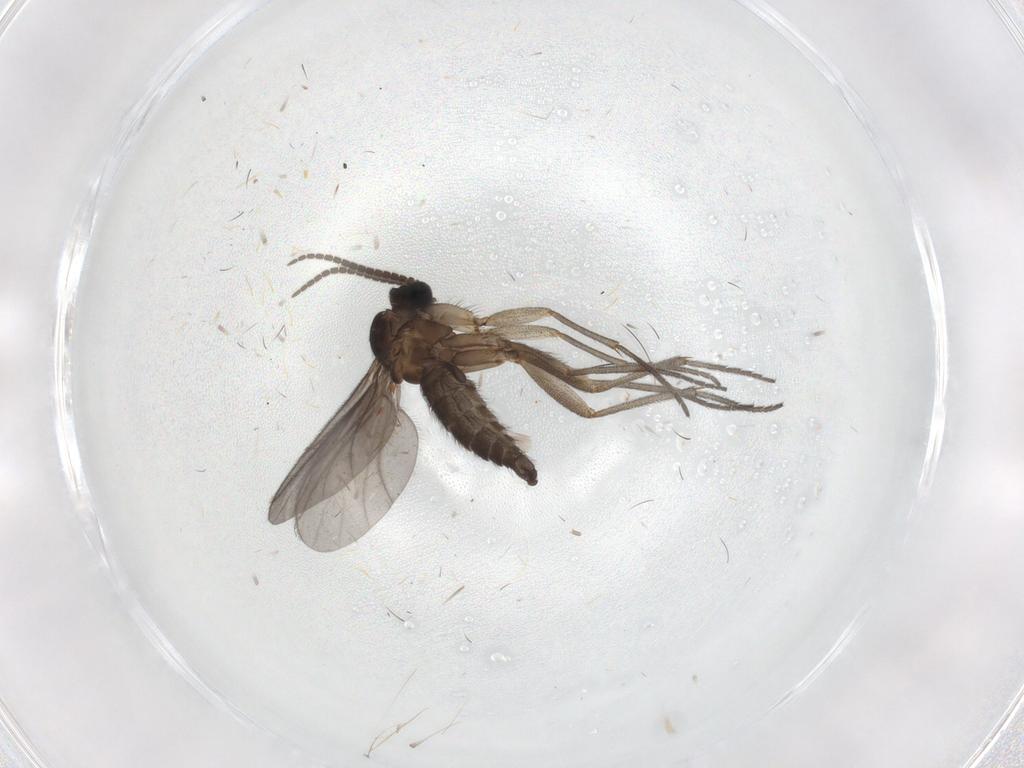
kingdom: Animalia
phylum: Arthropoda
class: Insecta
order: Diptera
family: Sciaridae
